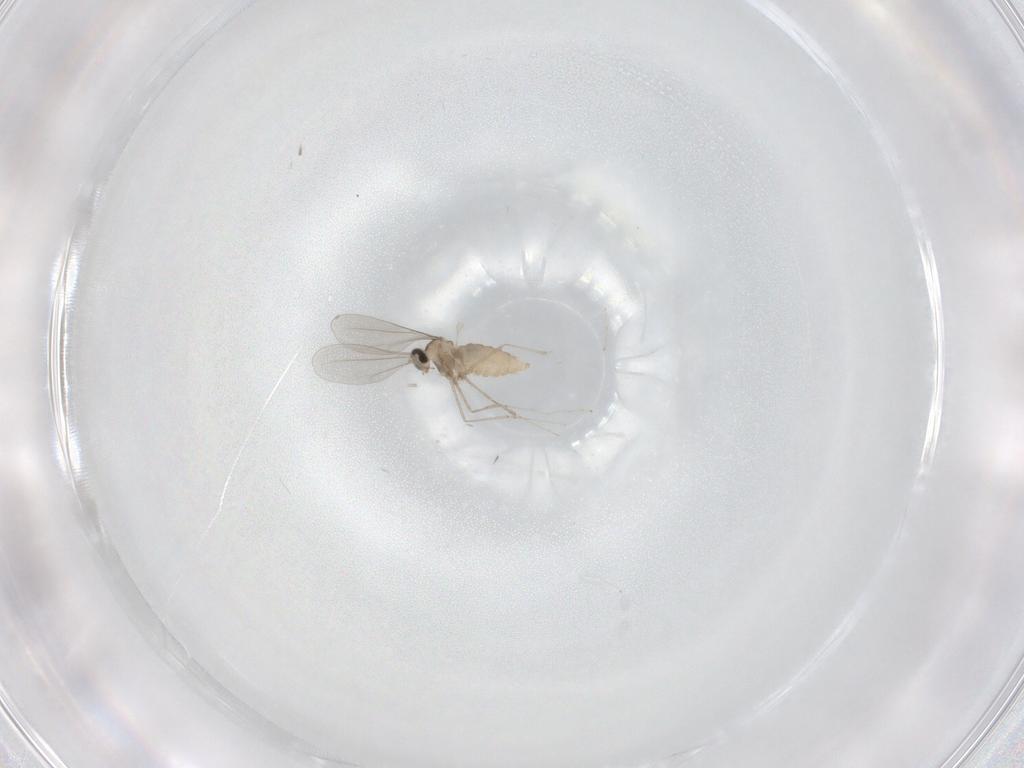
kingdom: Animalia
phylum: Arthropoda
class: Insecta
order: Diptera
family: Cecidomyiidae
